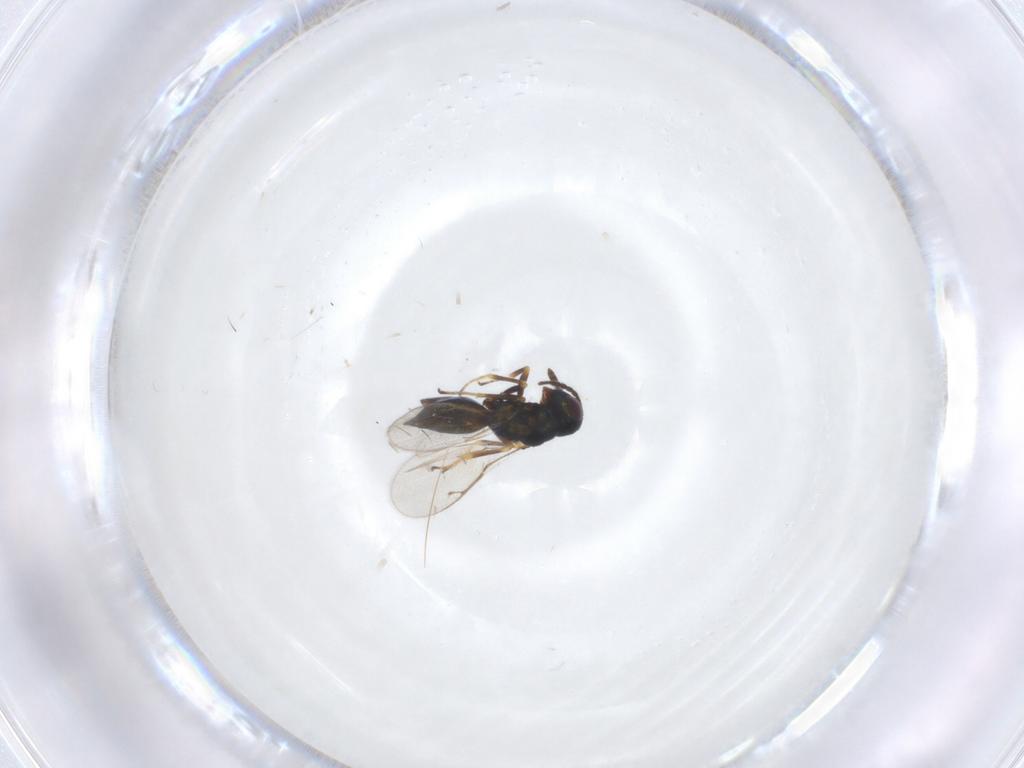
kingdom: Animalia
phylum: Arthropoda
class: Insecta
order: Hymenoptera
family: Pteromalidae
